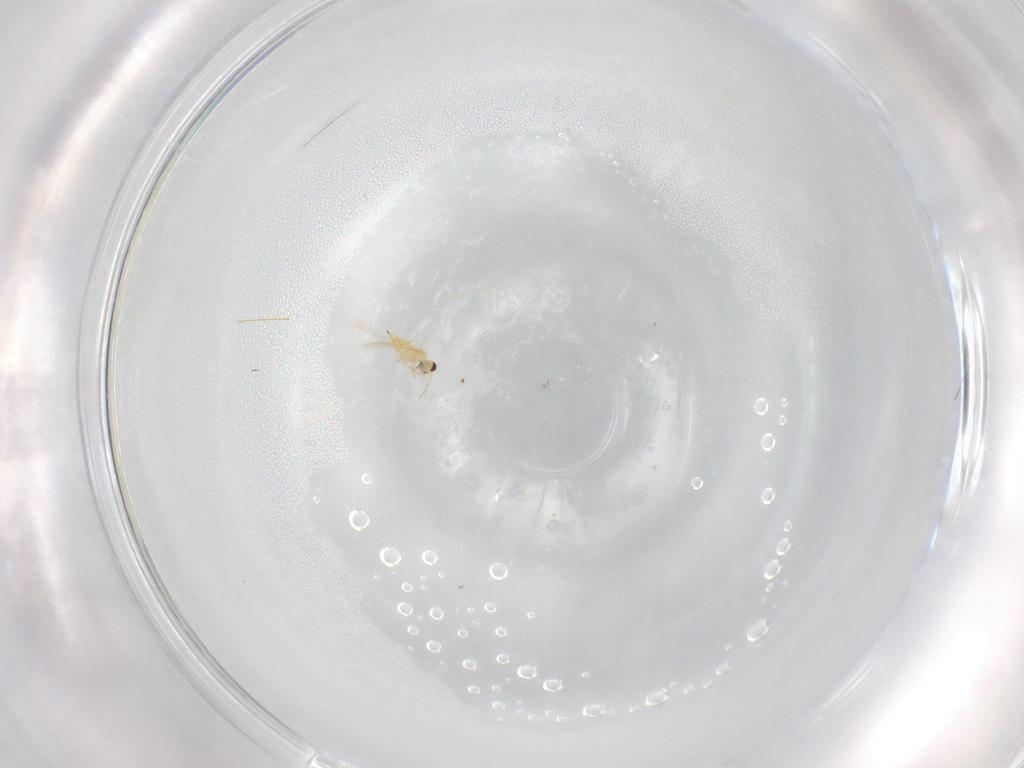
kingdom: Animalia
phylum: Arthropoda
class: Insecta
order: Hymenoptera
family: Mymaridae
